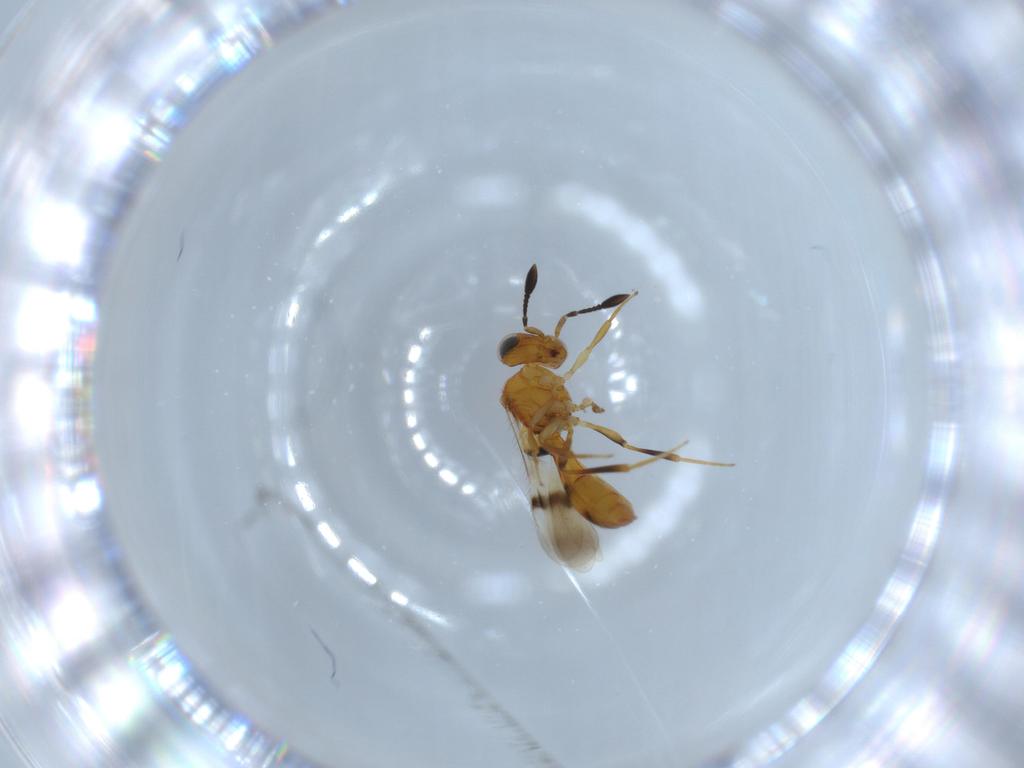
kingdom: Animalia
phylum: Arthropoda
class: Insecta
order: Hymenoptera
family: Scelionidae
